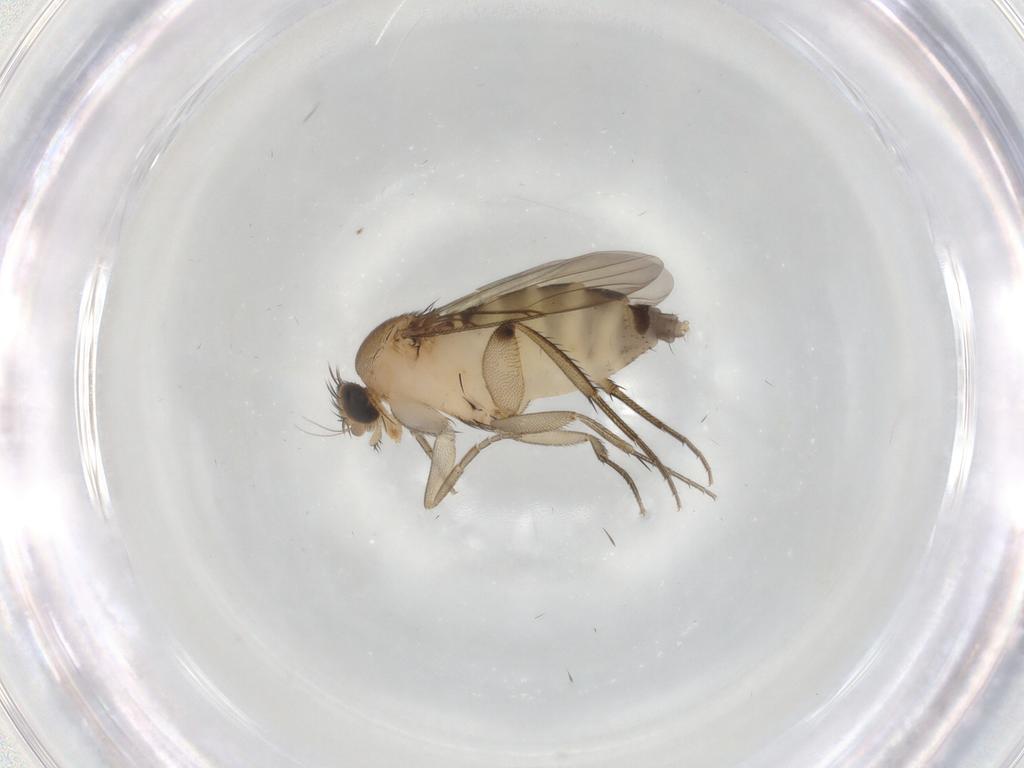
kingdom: Animalia
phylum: Arthropoda
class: Insecta
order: Diptera
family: Phoridae
